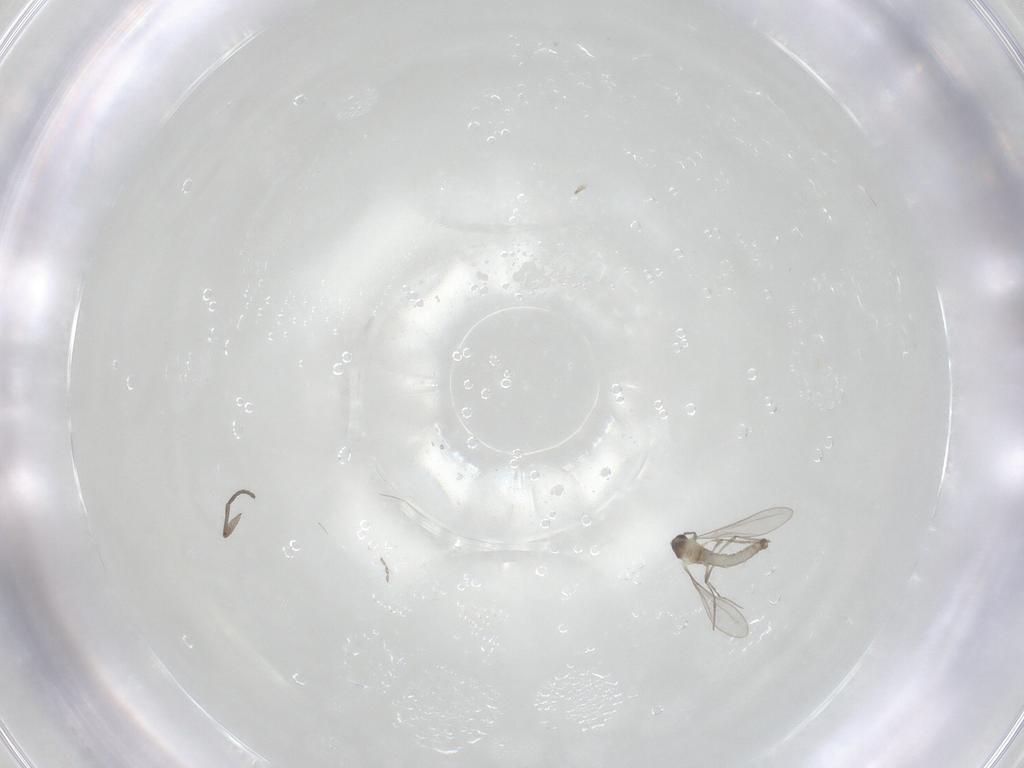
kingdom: Animalia
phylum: Arthropoda
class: Insecta
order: Diptera
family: Cecidomyiidae
